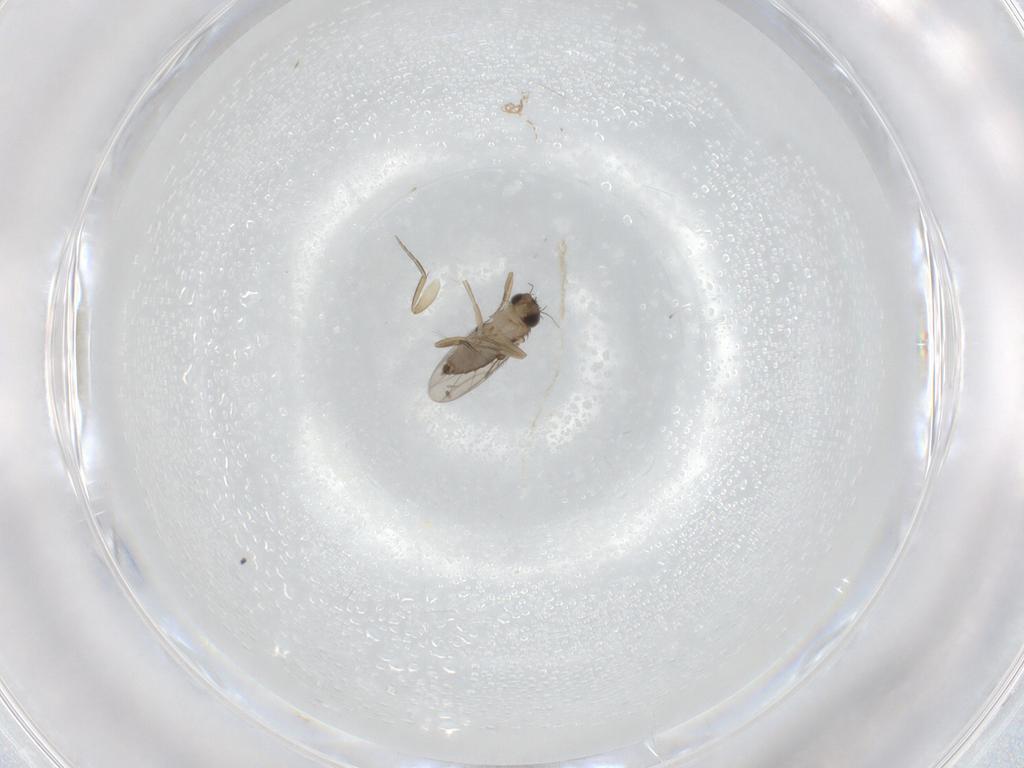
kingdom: Animalia
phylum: Arthropoda
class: Insecta
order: Diptera
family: Phoridae
